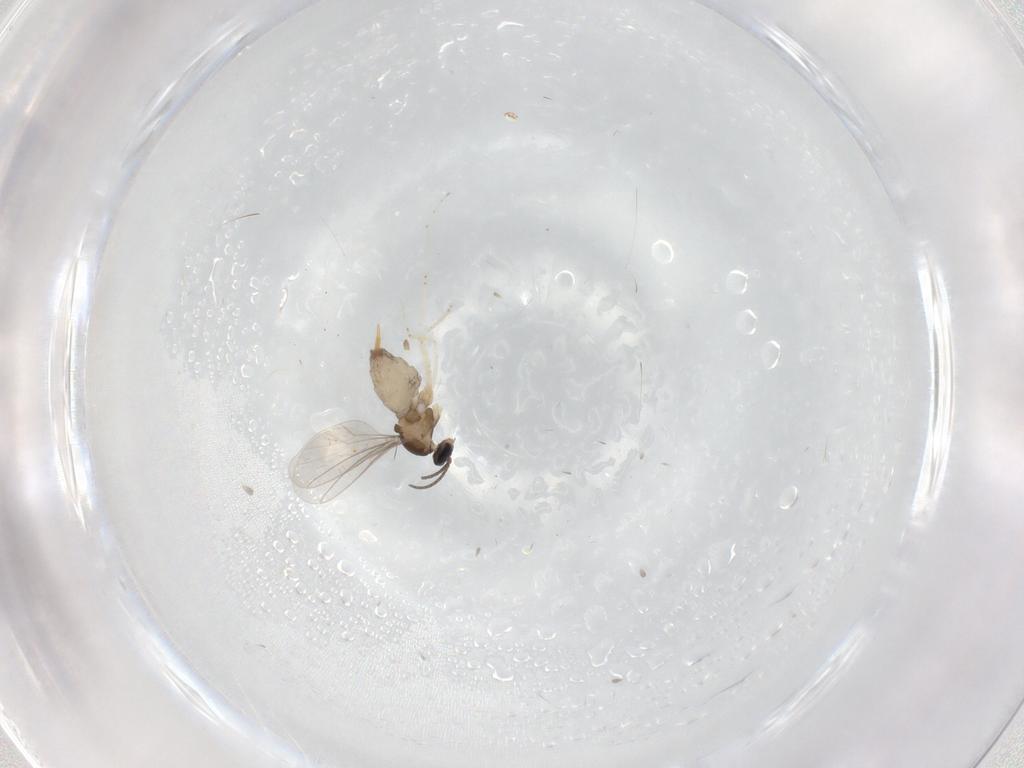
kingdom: Animalia
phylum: Arthropoda
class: Insecta
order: Diptera
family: Cecidomyiidae
